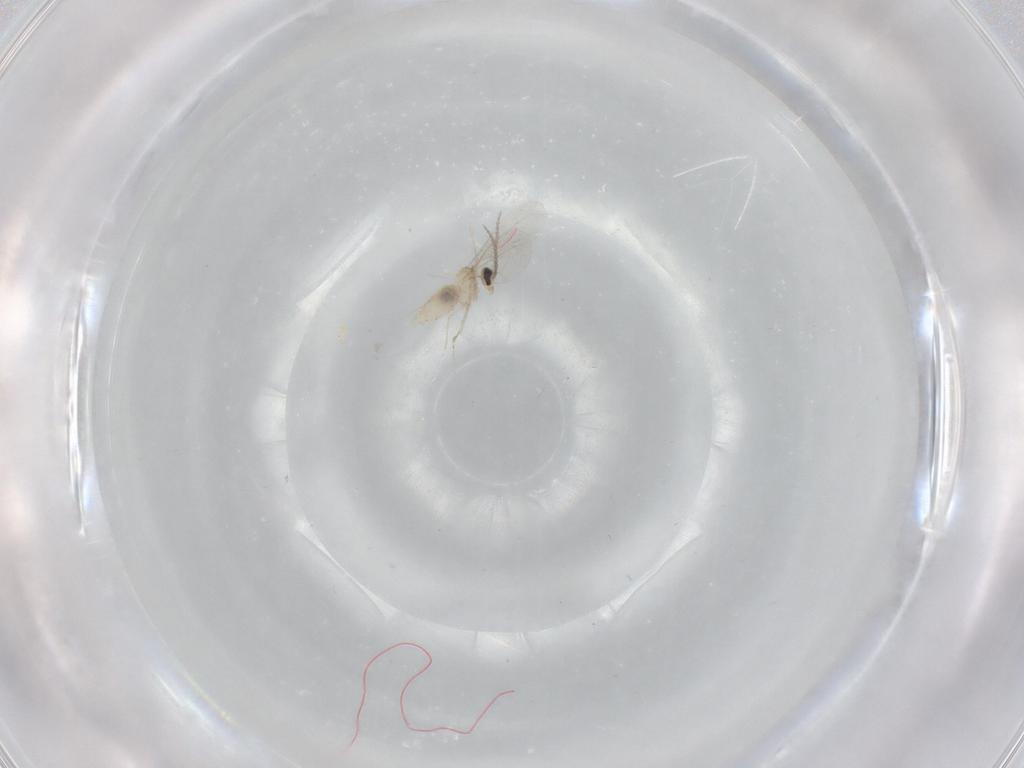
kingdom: Animalia
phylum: Arthropoda
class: Insecta
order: Diptera
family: Cecidomyiidae
